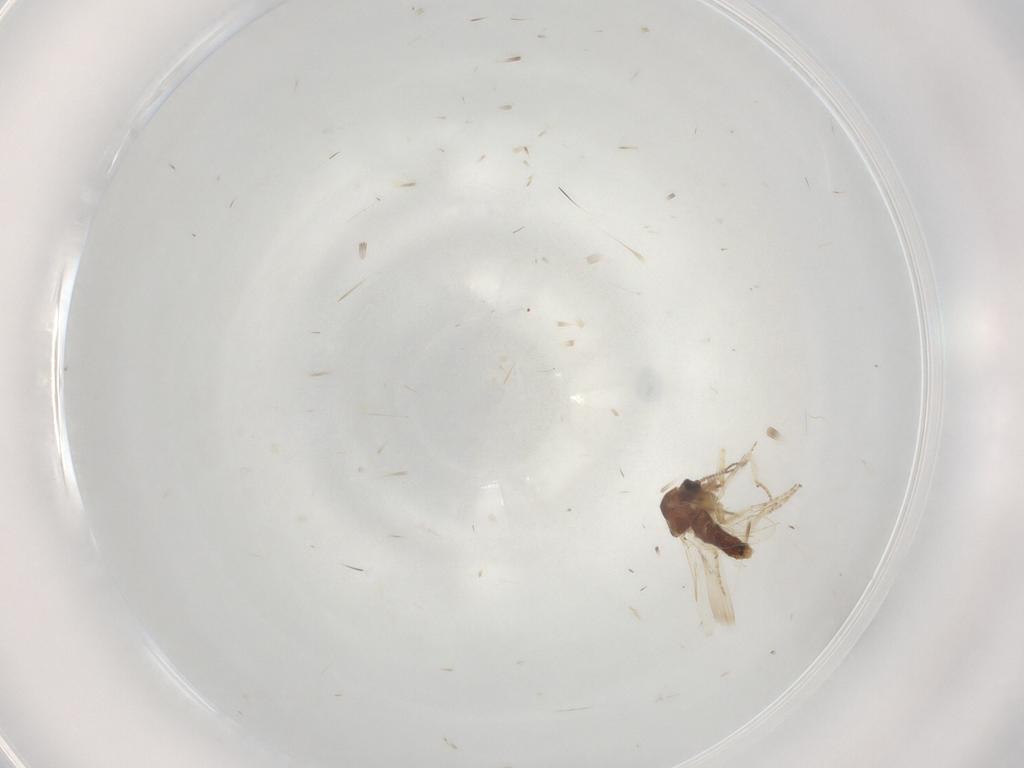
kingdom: Animalia
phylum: Arthropoda
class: Insecta
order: Diptera
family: Ceratopogonidae
